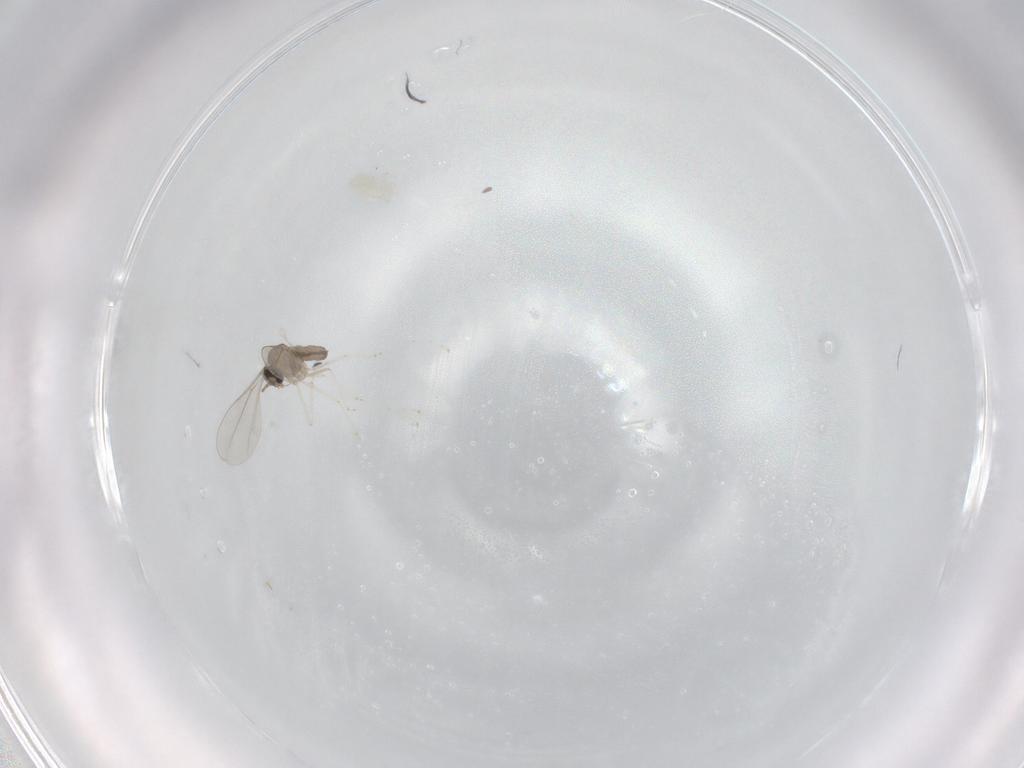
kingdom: Animalia
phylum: Arthropoda
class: Insecta
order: Diptera
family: Cecidomyiidae
